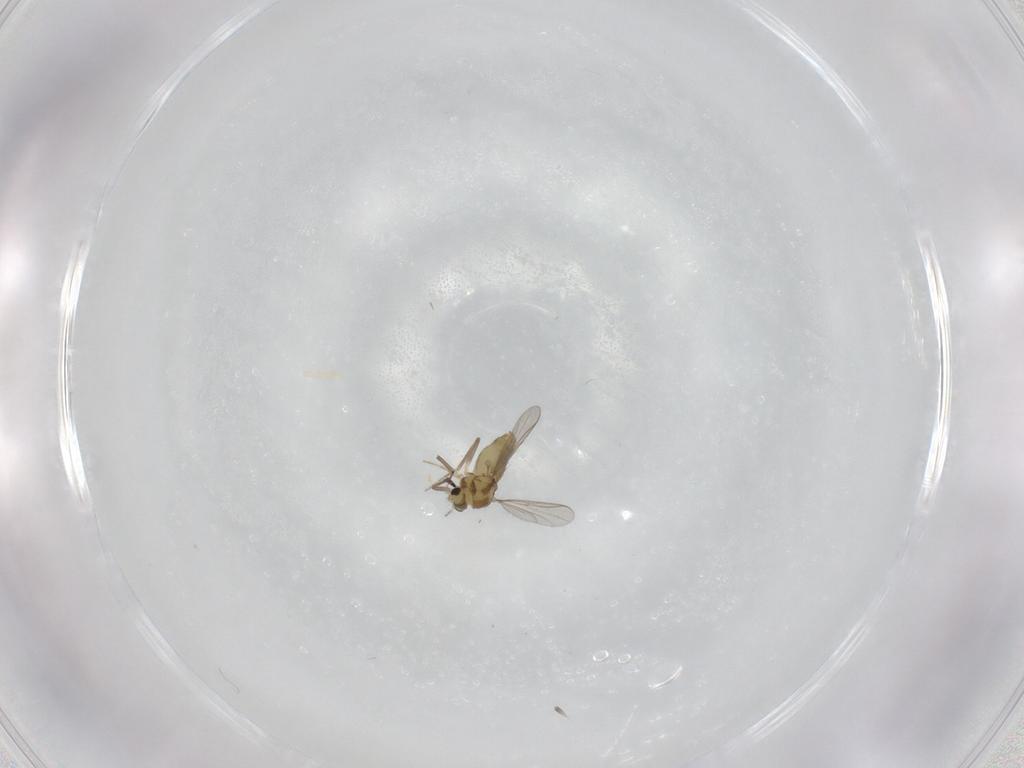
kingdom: Animalia
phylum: Arthropoda
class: Insecta
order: Diptera
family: Chironomidae
